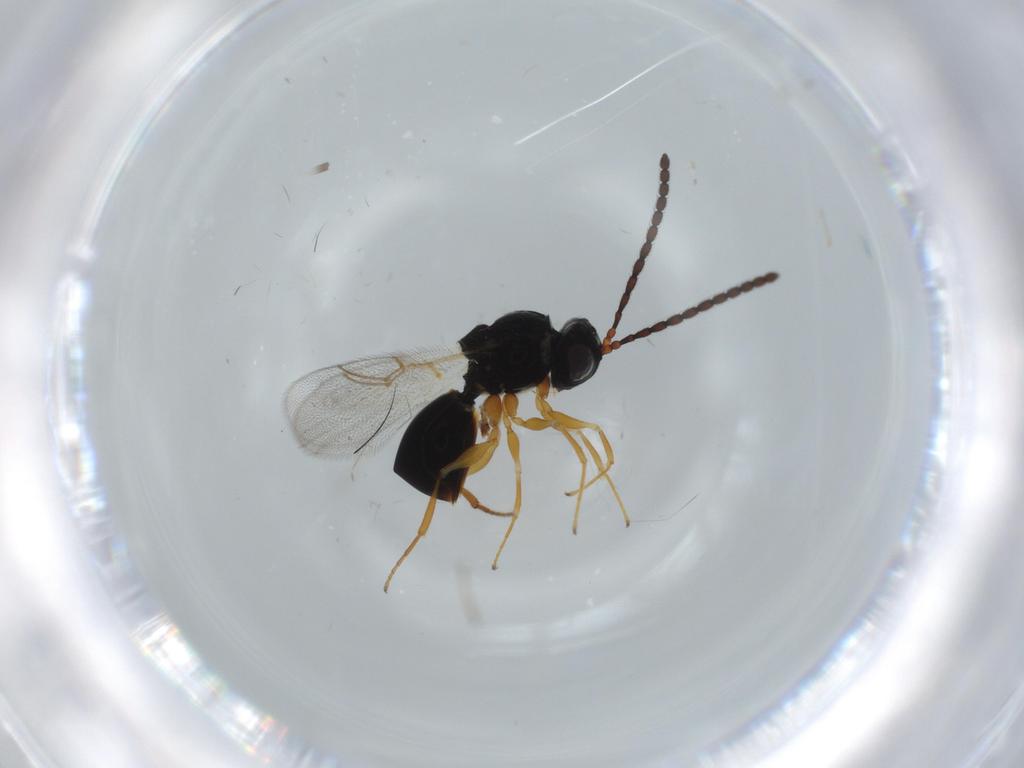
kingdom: Animalia
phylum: Arthropoda
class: Insecta
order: Hymenoptera
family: Figitidae
